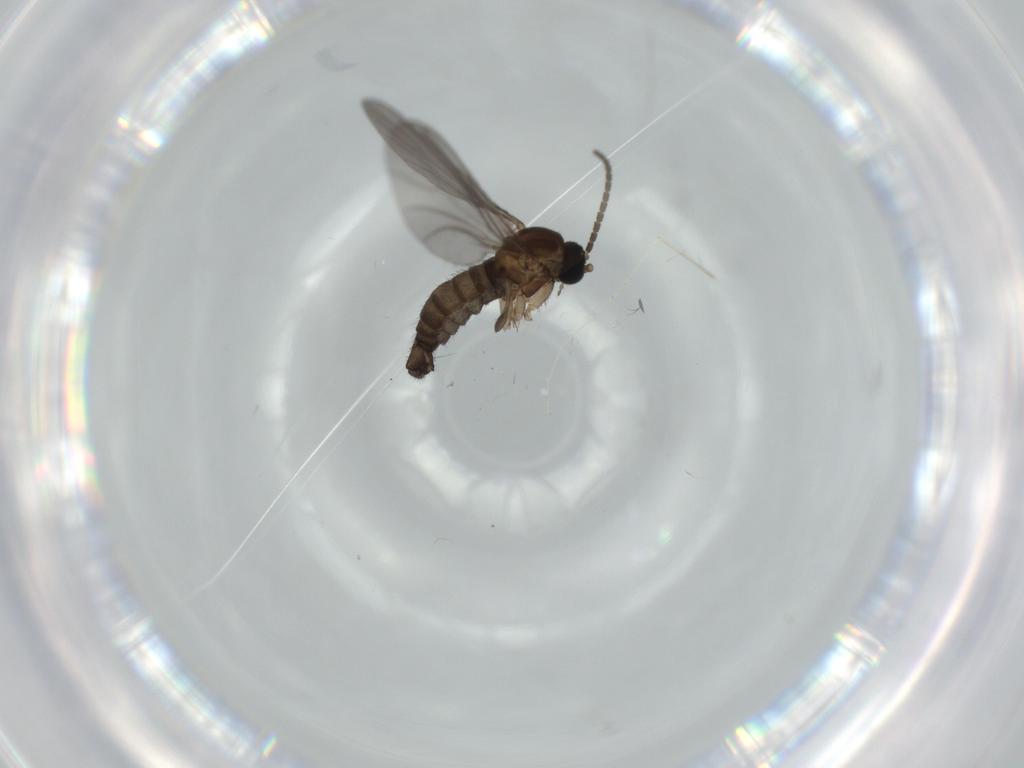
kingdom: Animalia
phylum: Arthropoda
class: Insecta
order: Diptera
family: Sciaridae
